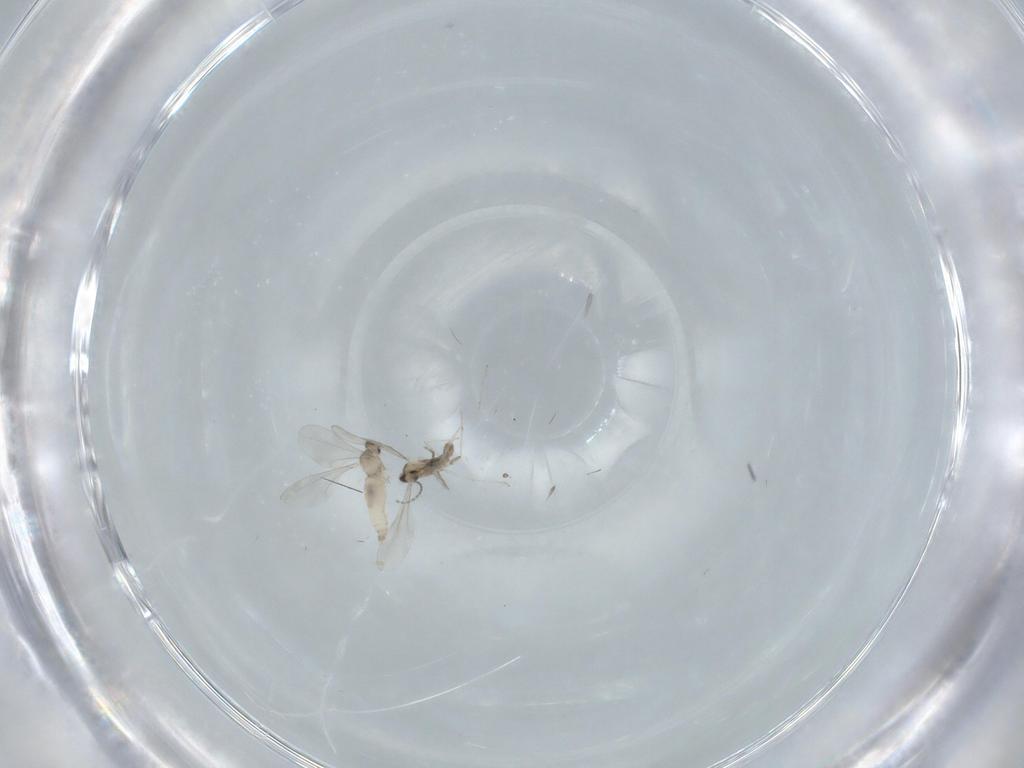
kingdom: Animalia
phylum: Arthropoda
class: Insecta
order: Diptera
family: Cecidomyiidae
